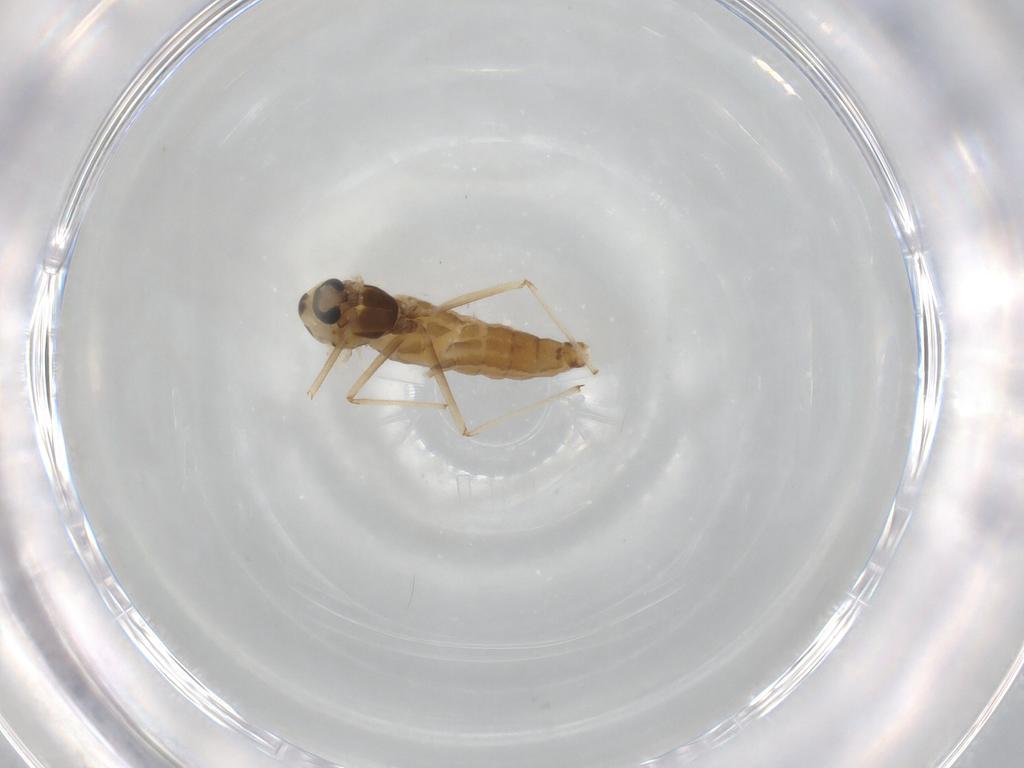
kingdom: Animalia
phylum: Arthropoda
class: Insecta
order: Diptera
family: Chironomidae
